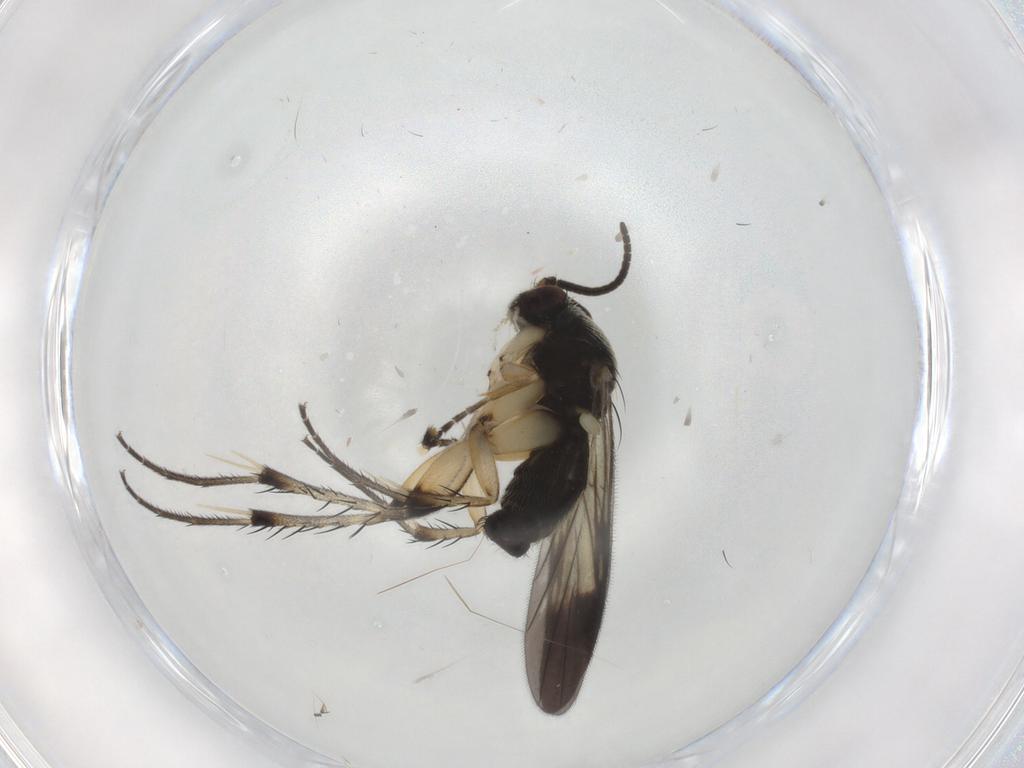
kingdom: Animalia
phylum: Arthropoda
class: Insecta
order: Diptera
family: Mycetophilidae
